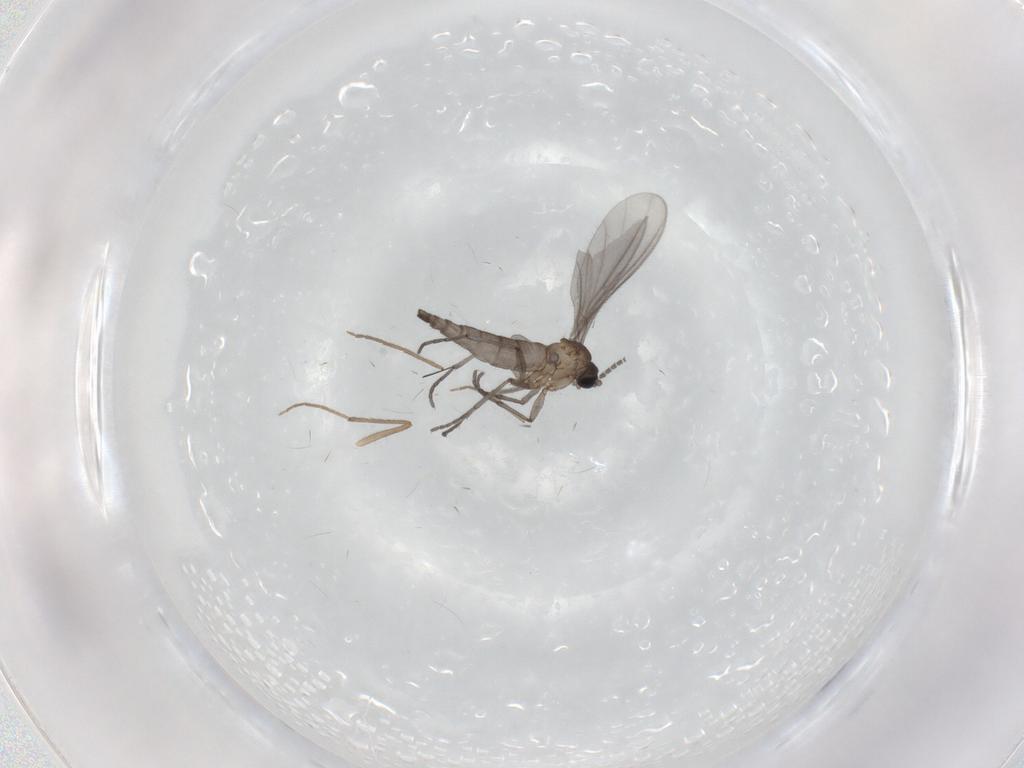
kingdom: Animalia
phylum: Arthropoda
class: Insecta
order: Diptera
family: Sciaridae
